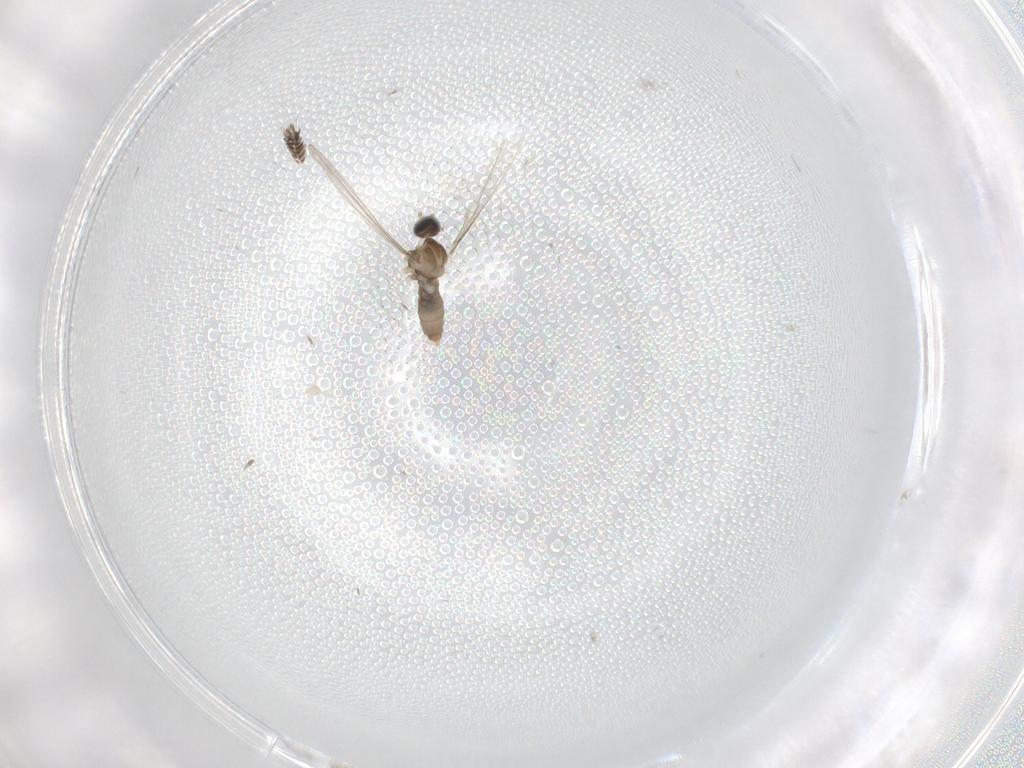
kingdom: Animalia
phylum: Arthropoda
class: Insecta
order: Diptera
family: Cecidomyiidae
